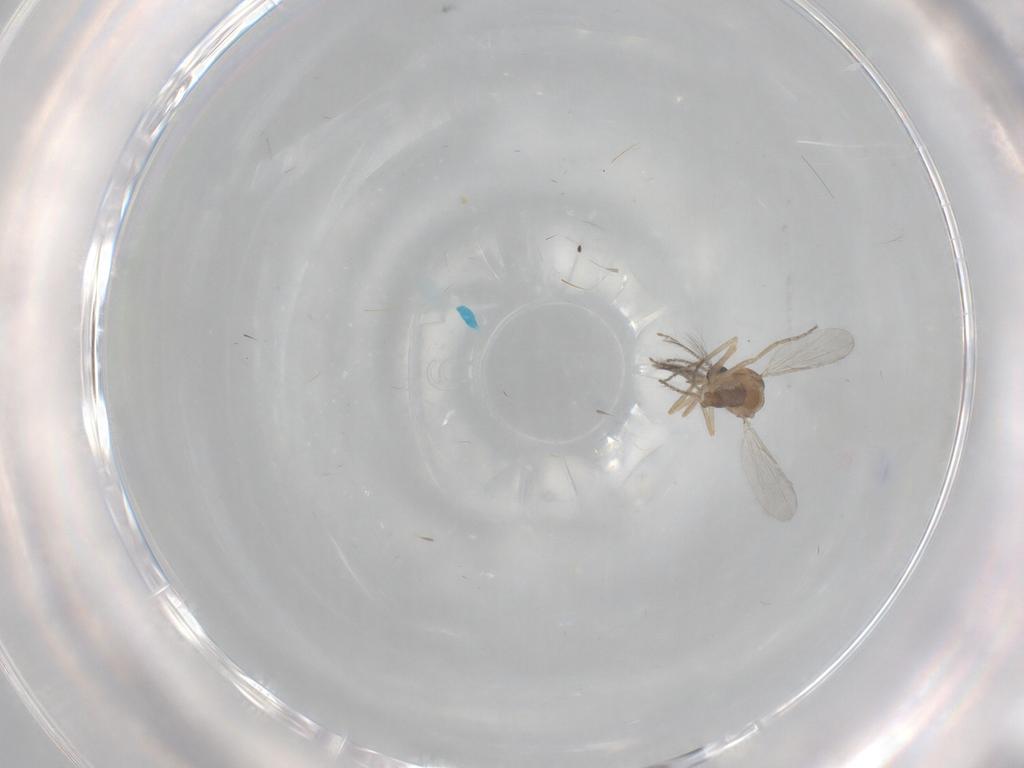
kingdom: Animalia
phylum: Arthropoda
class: Insecta
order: Diptera
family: Ceratopogonidae
